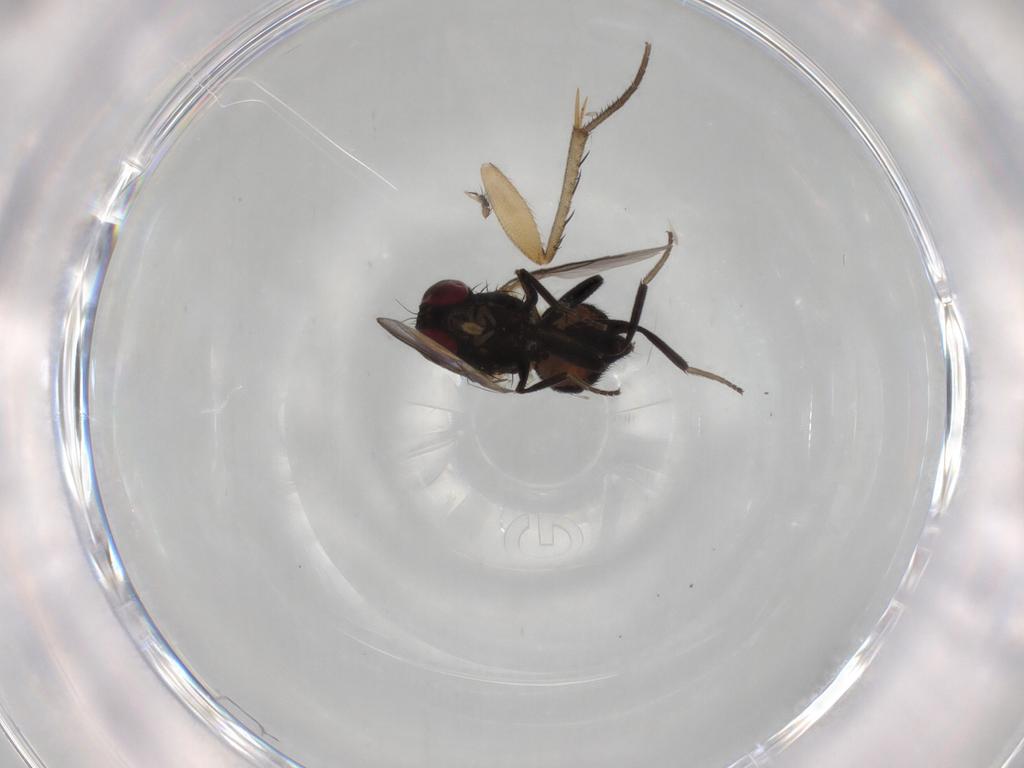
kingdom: Animalia
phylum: Arthropoda
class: Insecta
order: Diptera
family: Mycetophilidae
